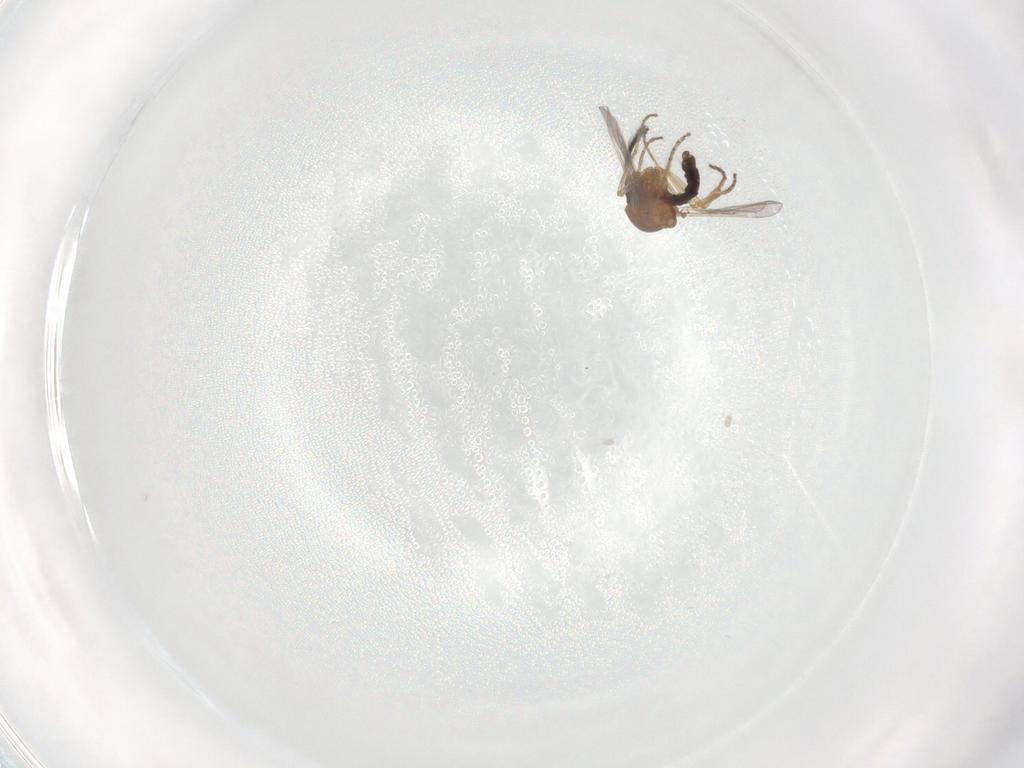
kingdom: Animalia
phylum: Arthropoda
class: Insecta
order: Diptera
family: Ceratopogonidae
